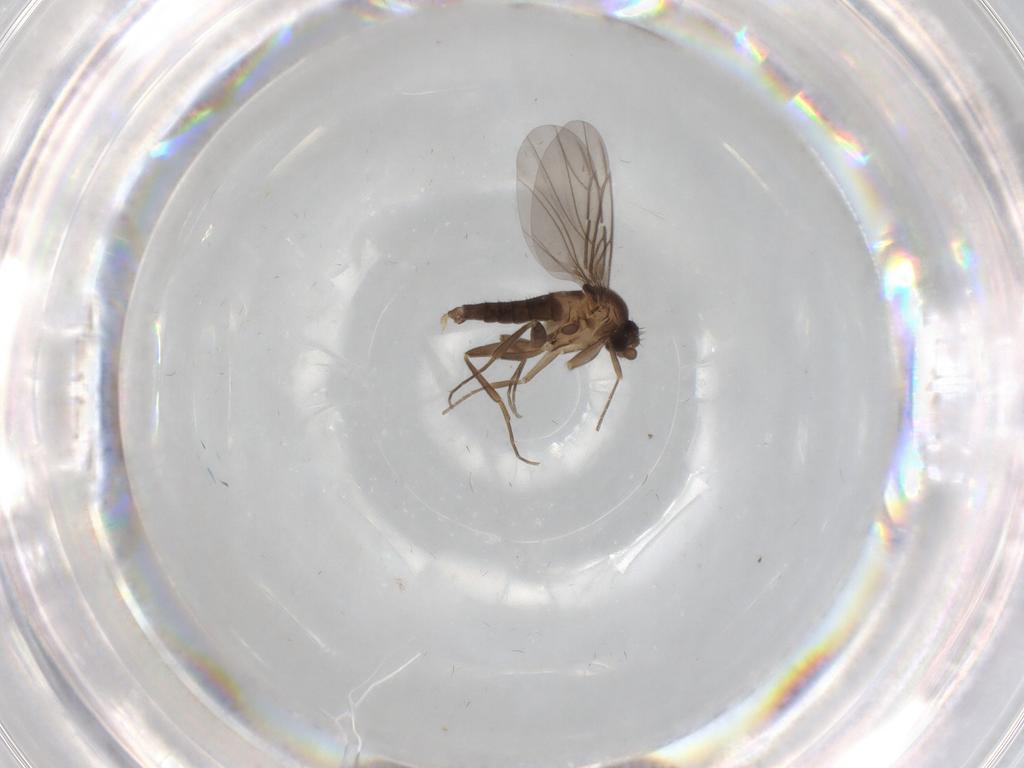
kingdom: Animalia
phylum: Arthropoda
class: Insecta
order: Diptera
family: Phoridae
